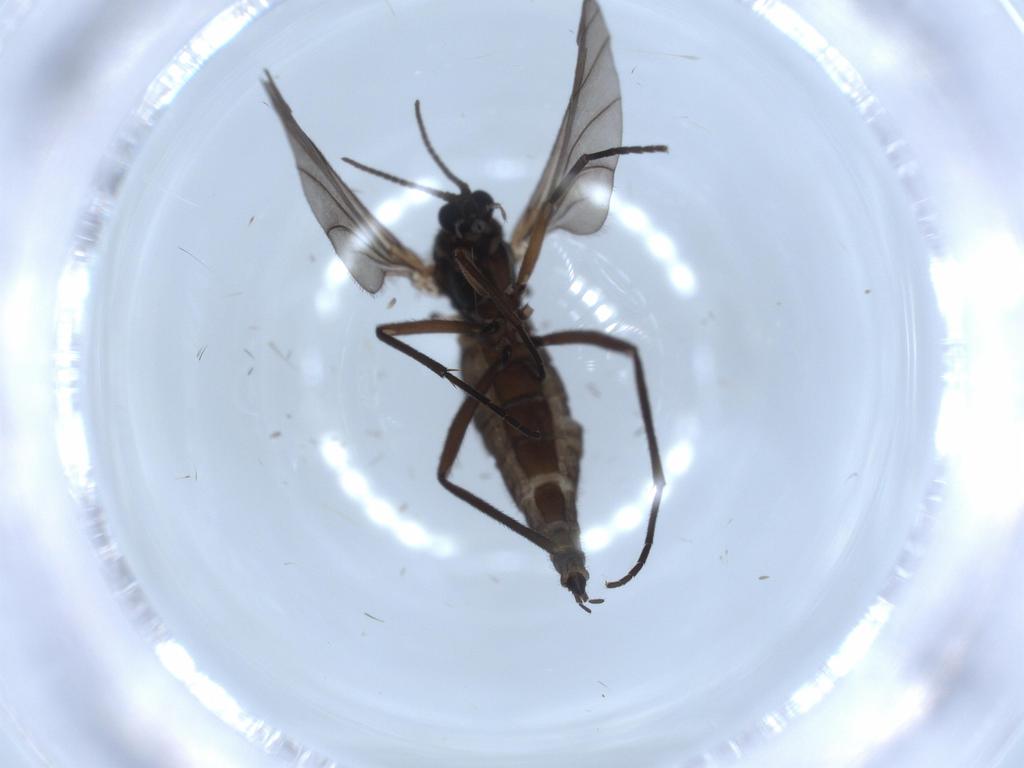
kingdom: Animalia
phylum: Arthropoda
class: Insecta
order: Diptera
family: Sciaridae
